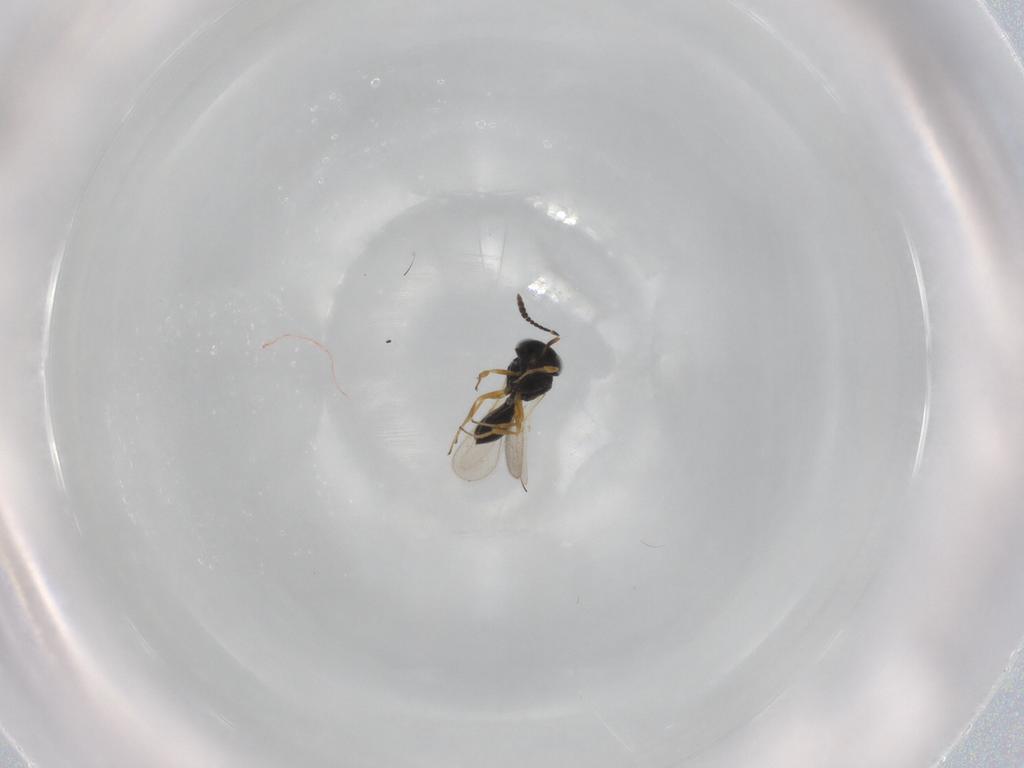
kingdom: Animalia
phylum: Arthropoda
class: Insecta
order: Hymenoptera
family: Scelionidae
